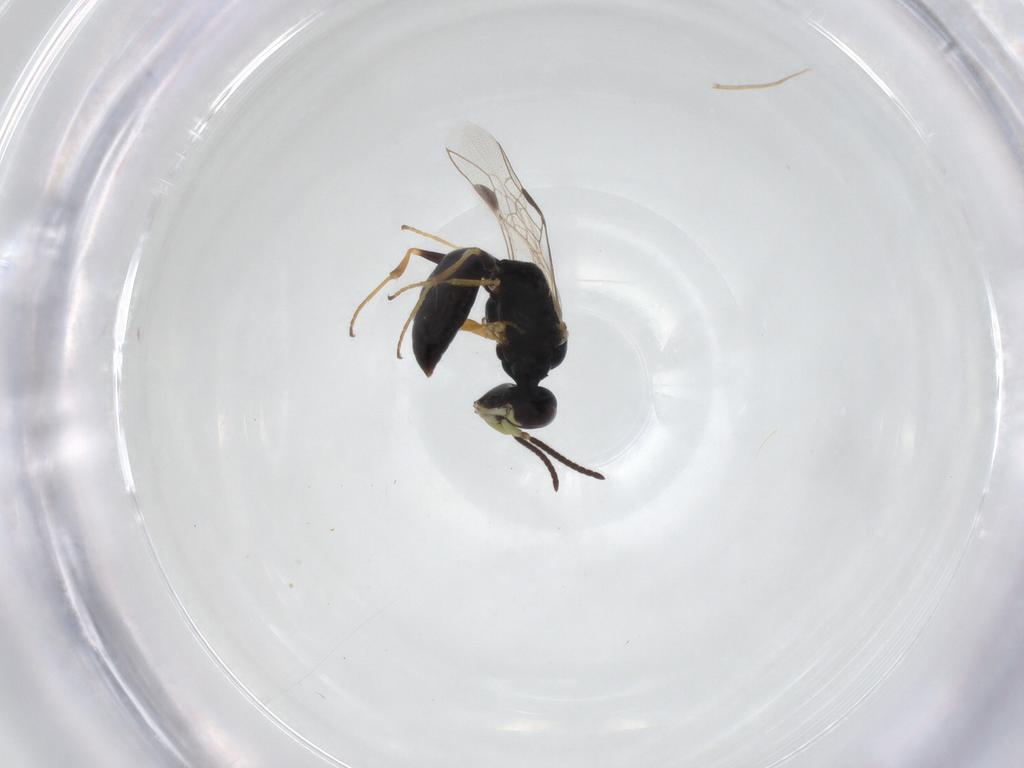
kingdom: Animalia
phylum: Arthropoda
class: Insecta
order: Hymenoptera
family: Crabronidae
